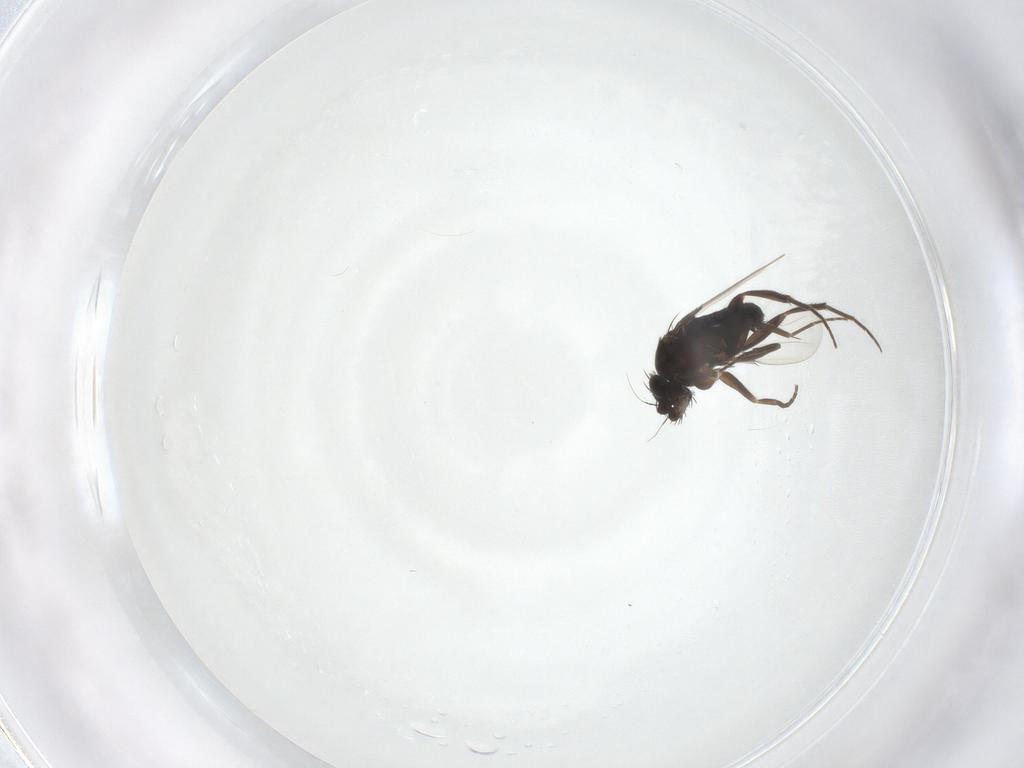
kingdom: Animalia
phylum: Arthropoda
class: Insecta
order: Diptera
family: Phoridae
